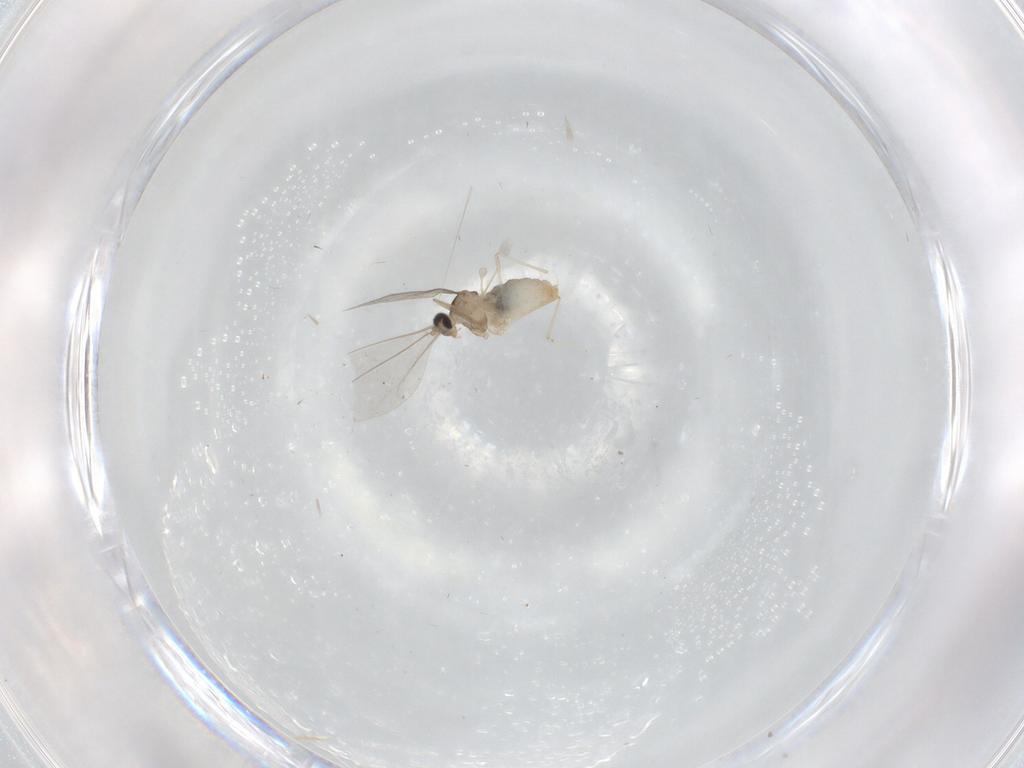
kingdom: Animalia
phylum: Arthropoda
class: Insecta
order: Diptera
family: Cecidomyiidae
